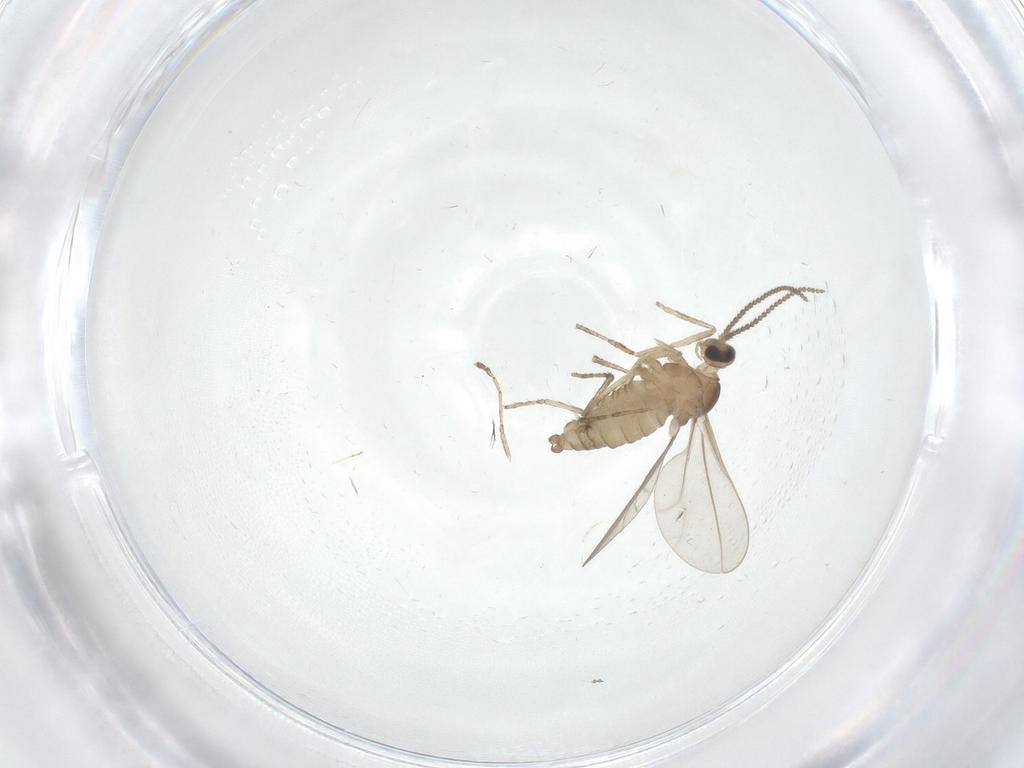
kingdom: Animalia
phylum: Arthropoda
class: Insecta
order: Diptera
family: Cecidomyiidae
